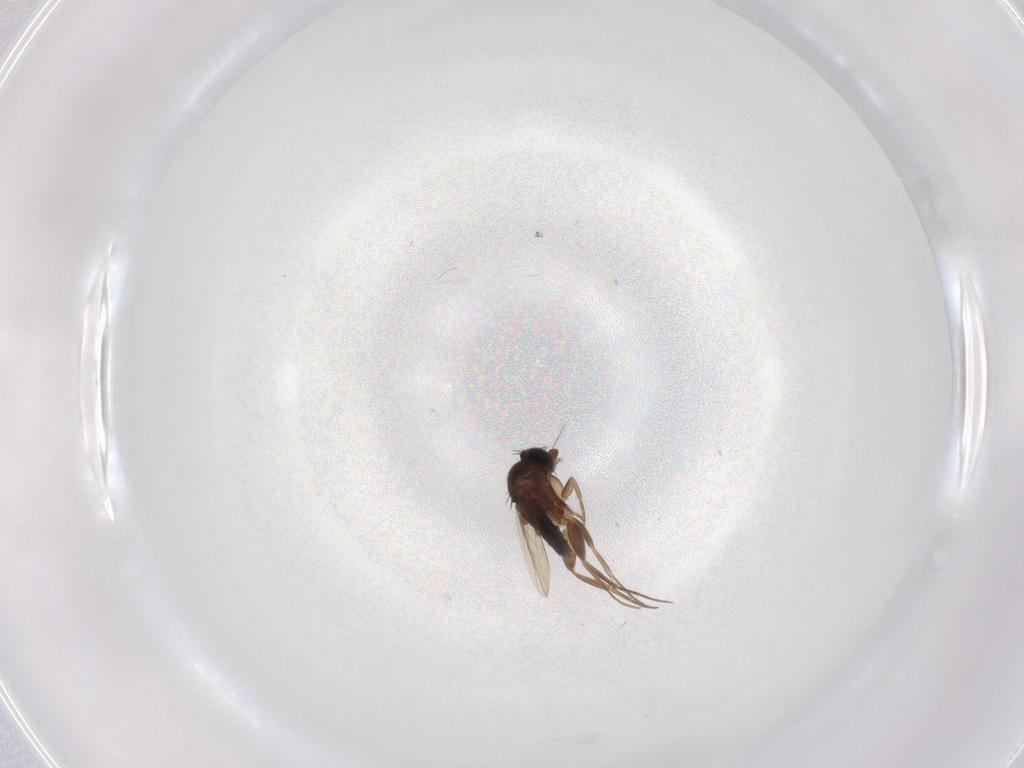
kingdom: Animalia
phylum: Arthropoda
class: Insecta
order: Diptera
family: Phoridae
